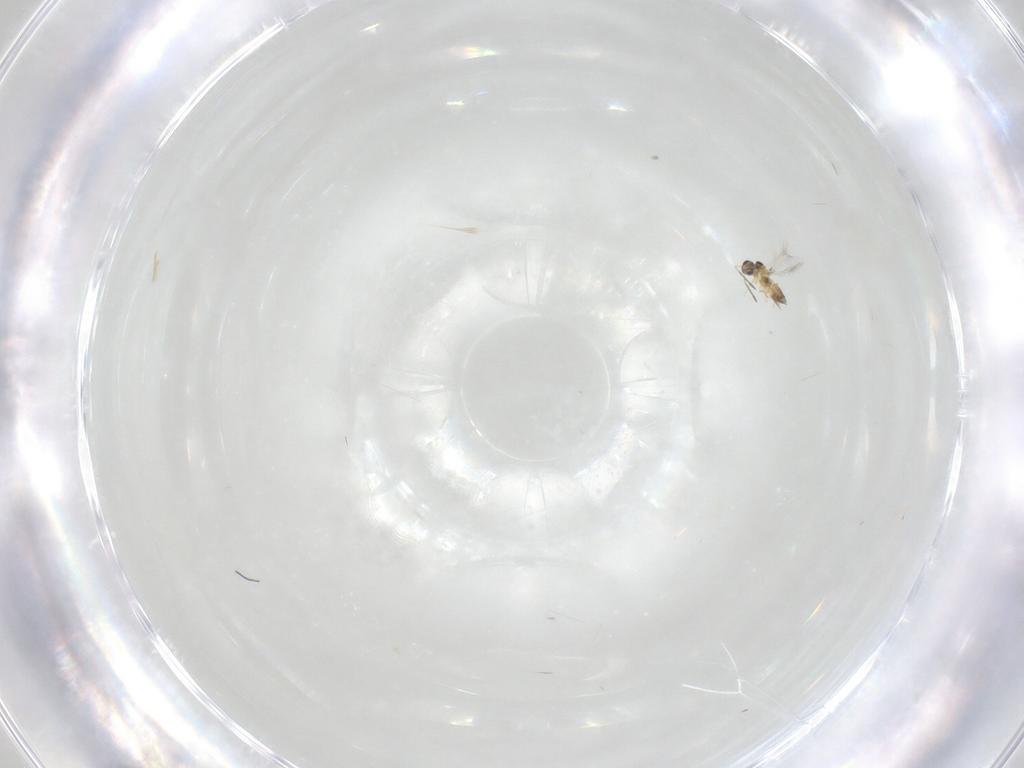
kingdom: Animalia
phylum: Arthropoda
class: Insecta
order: Hymenoptera
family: Mymaridae
